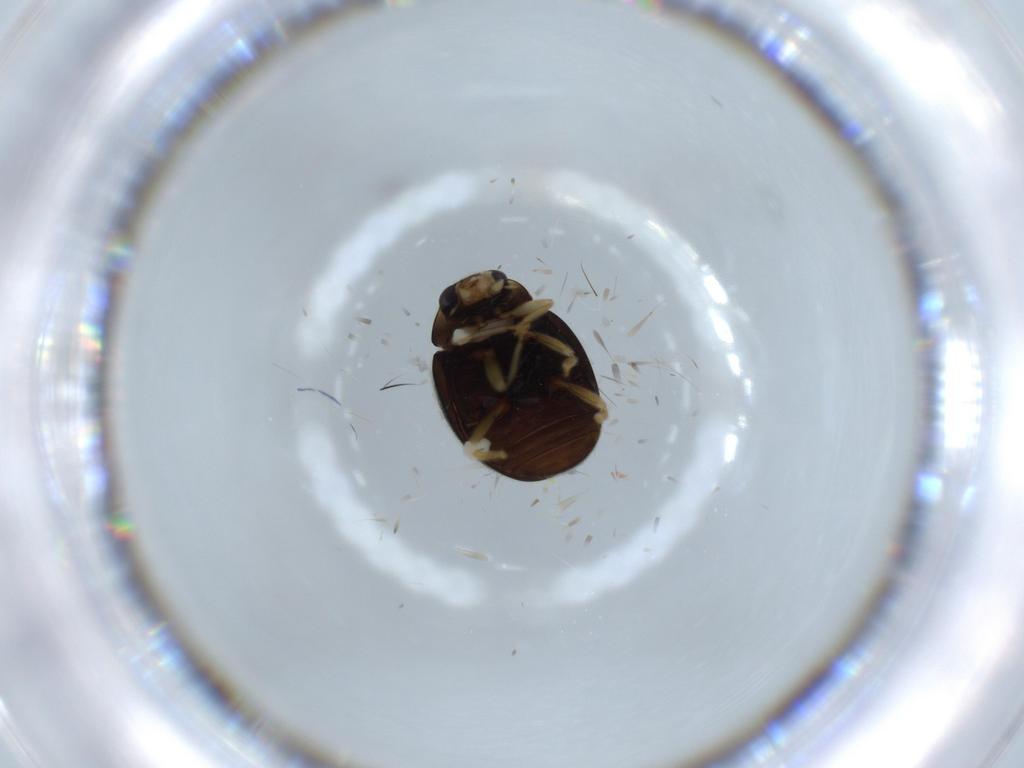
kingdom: Animalia
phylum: Arthropoda
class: Insecta
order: Coleoptera
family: Coccinellidae
